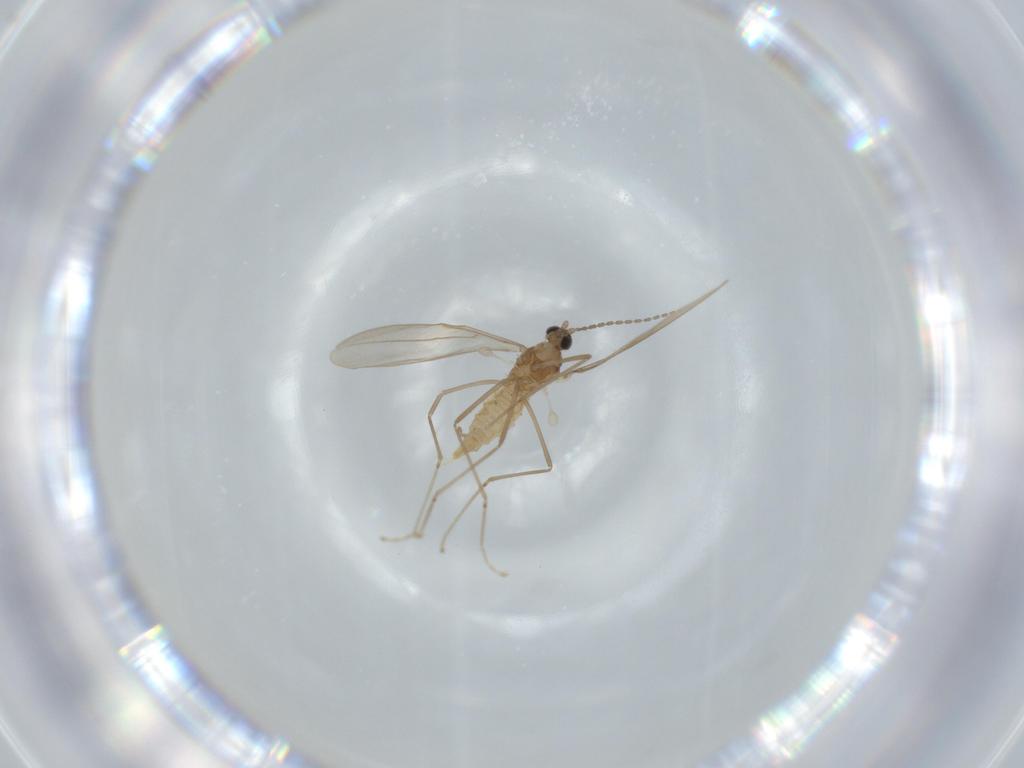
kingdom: Animalia
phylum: Arthropoda
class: Insecta
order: Diptera
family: Cecidomyiidae
